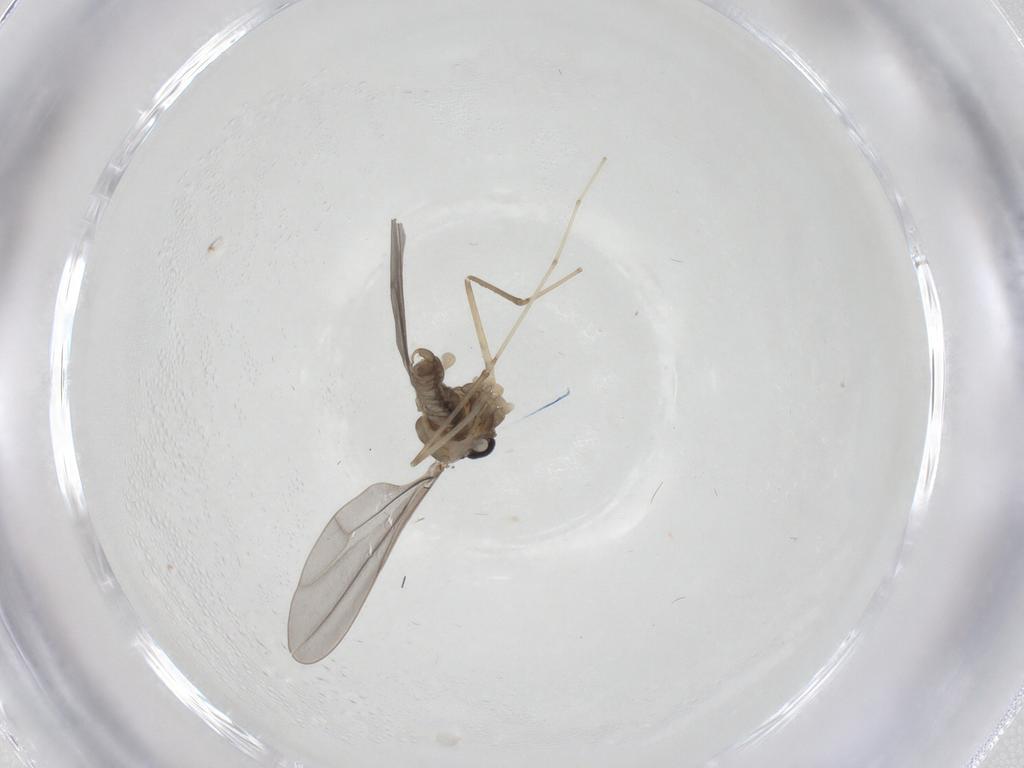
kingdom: Animalia
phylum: Arthropoda
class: Insecta
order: Diptera
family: Cecidomyiidae
